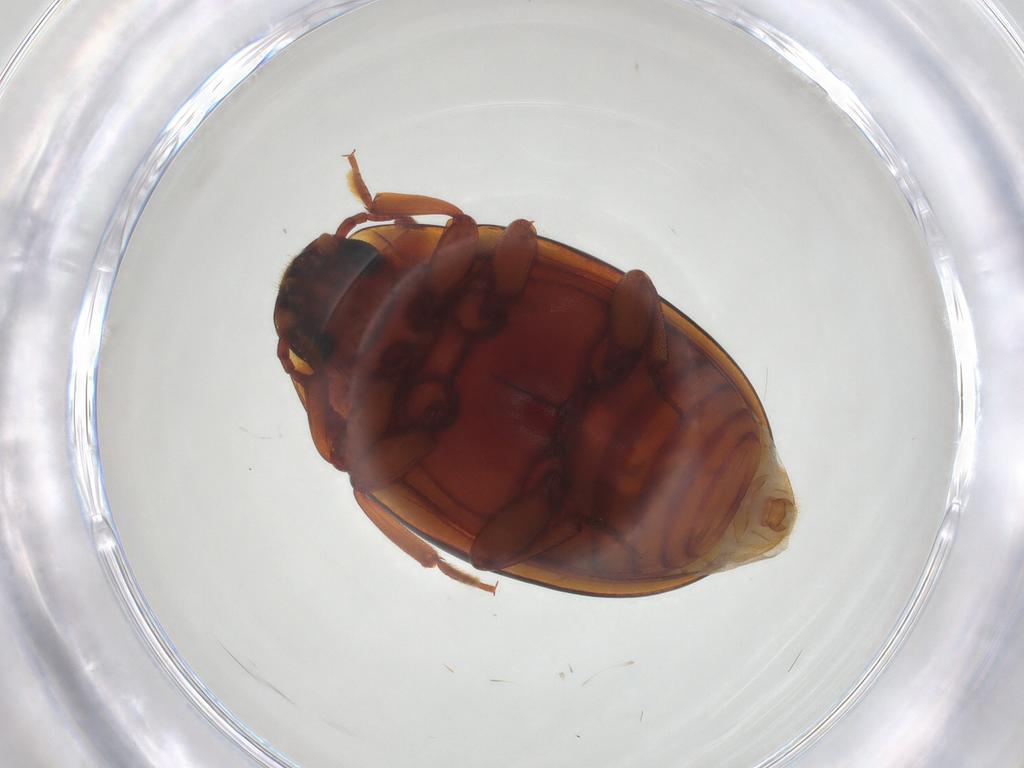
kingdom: Animalia
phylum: Arthropoda
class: Insecta
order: Coleoptera
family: Zopheridae
